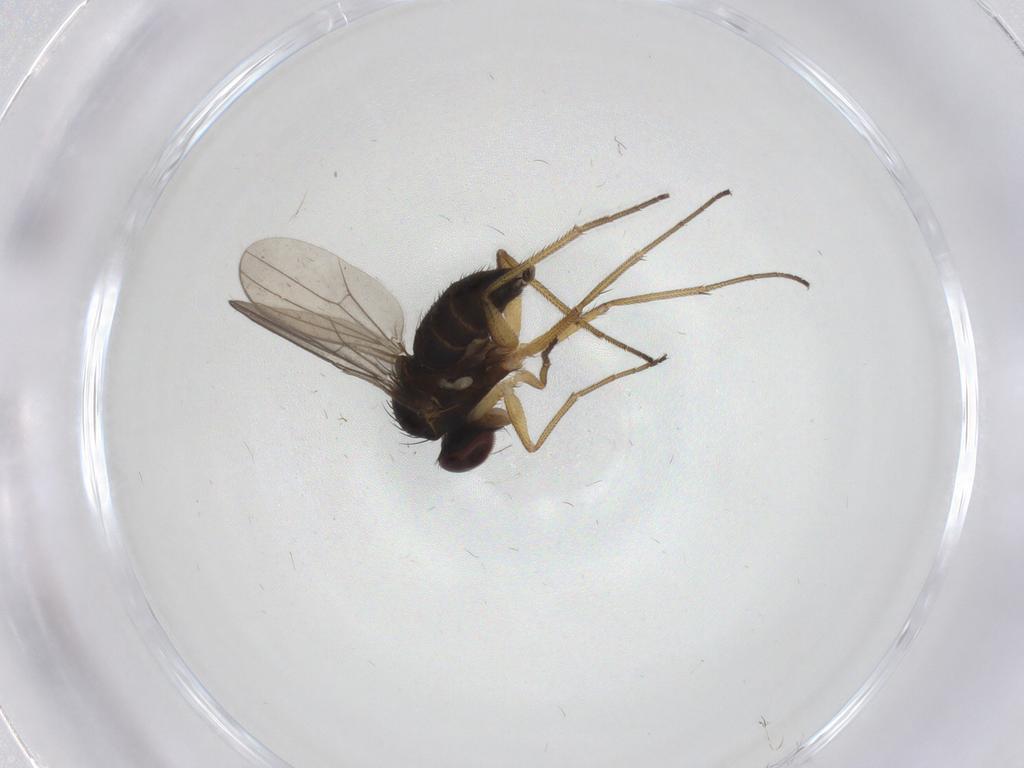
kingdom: Animalia
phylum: Arthropoda
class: Insecta
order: Diptera
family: Dolichopodidae
